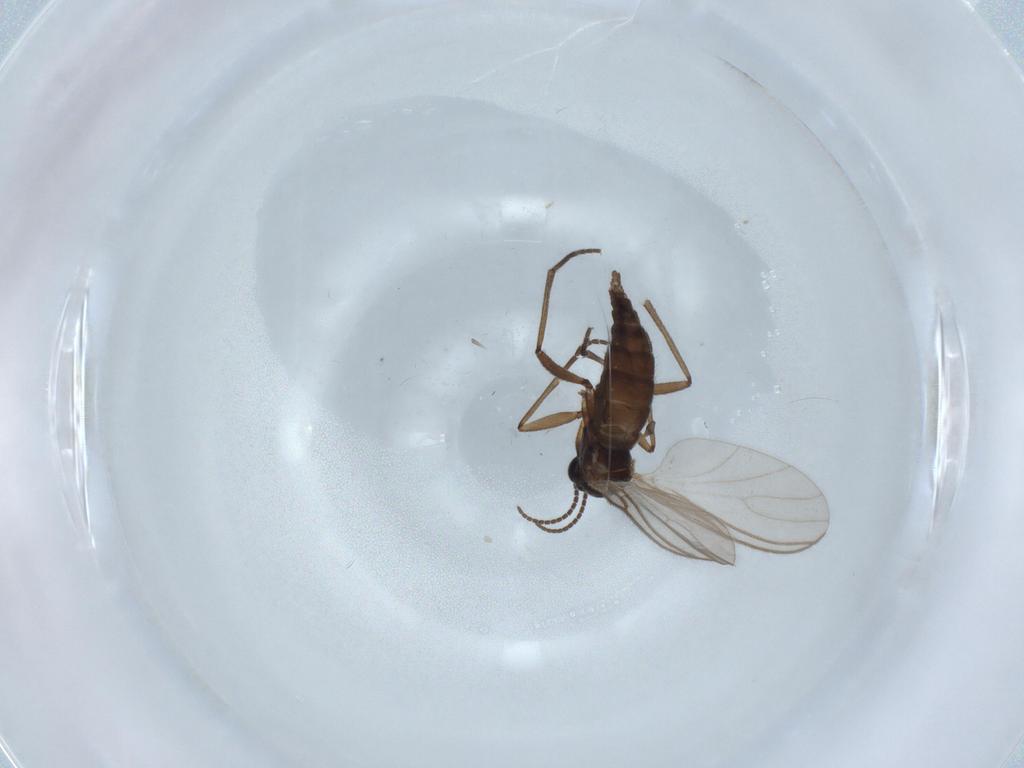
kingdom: Animalia
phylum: Arthropoda
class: Insecta
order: Diptera
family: Sciaridae
